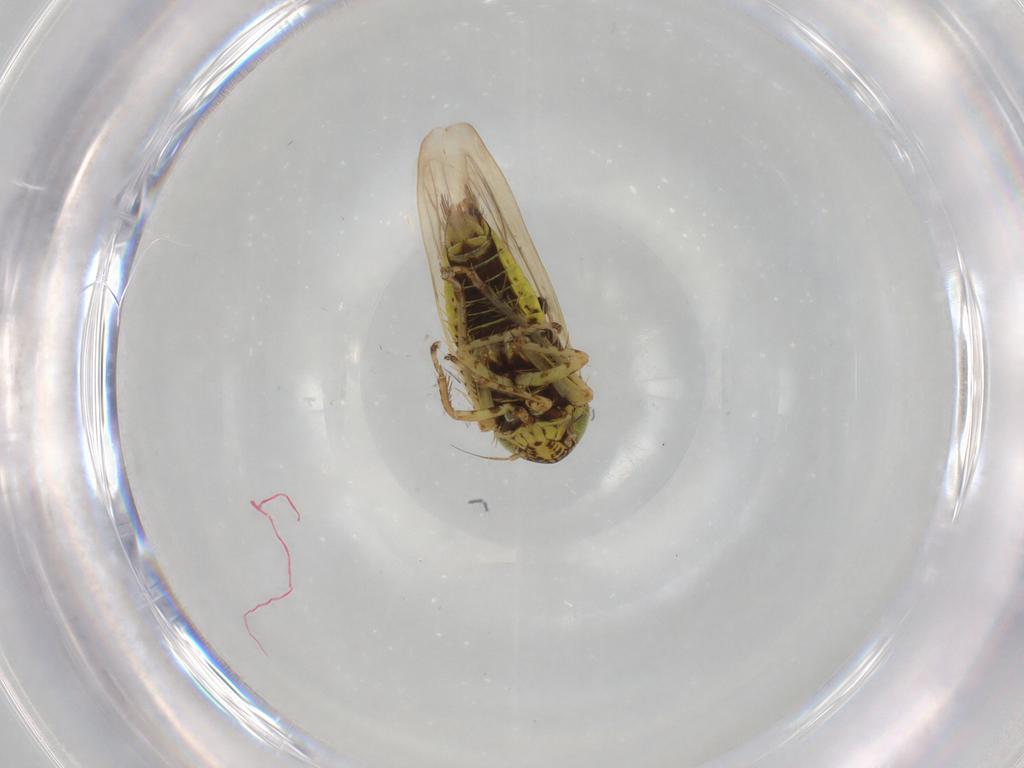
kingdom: Animalia
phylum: Arthropoda
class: Insecta
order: Hemiptera
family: Cicadellidae
